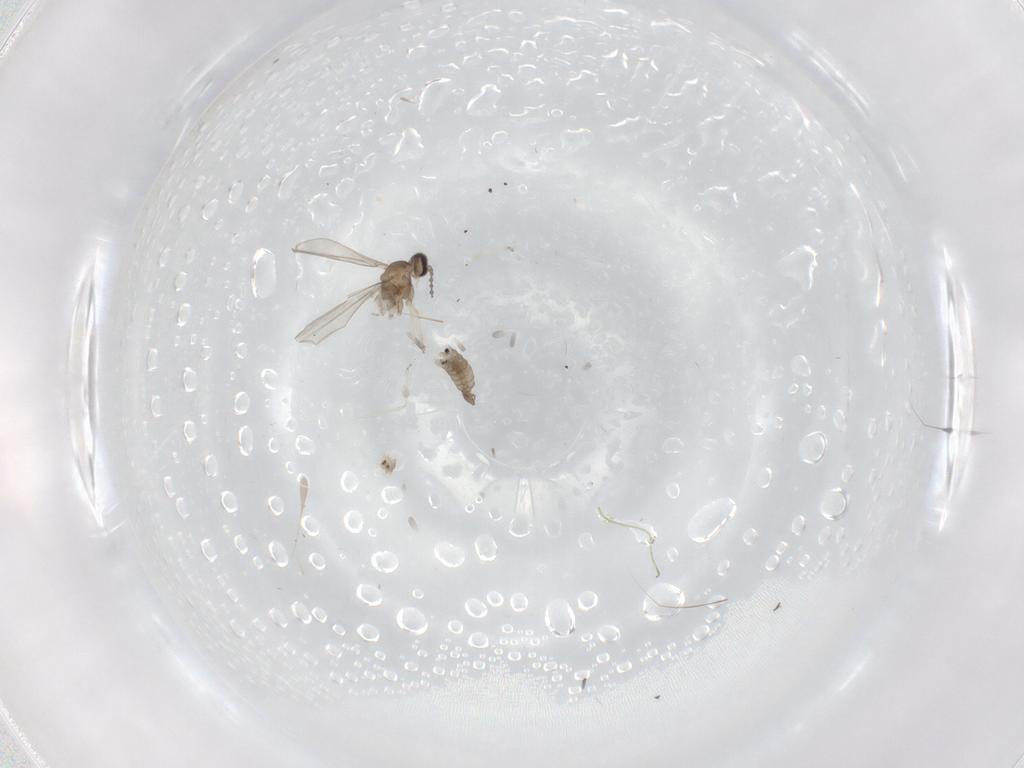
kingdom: Animalia
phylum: Arthropoda
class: Insecta
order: Diptera
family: Cecidomyiidae
